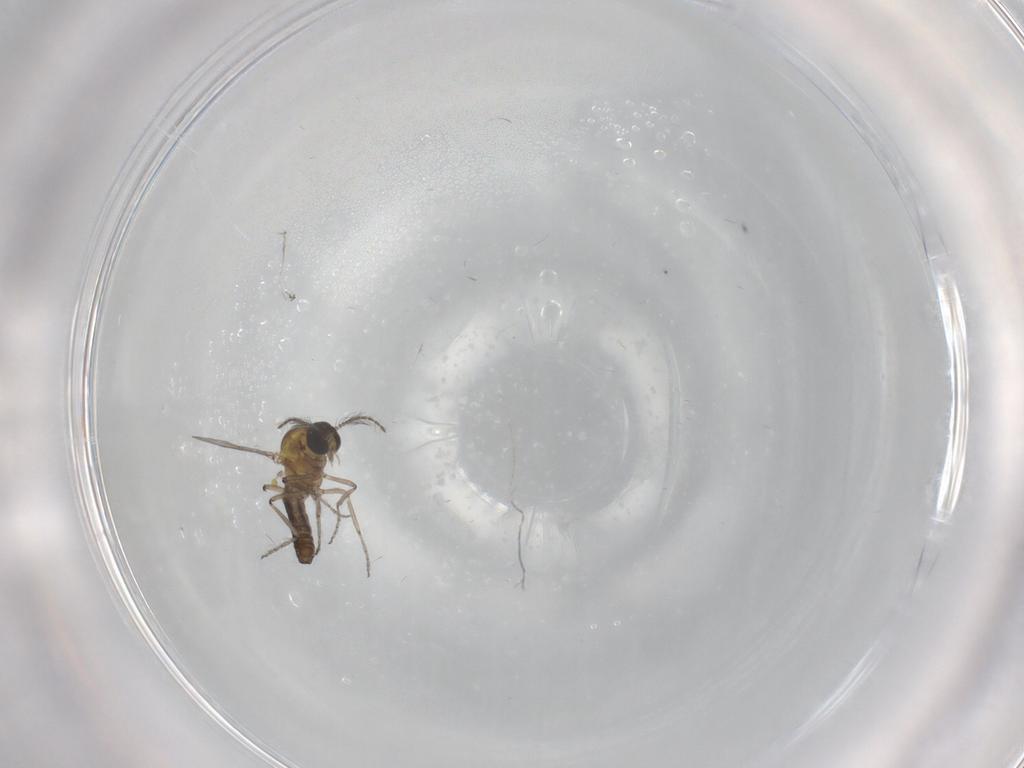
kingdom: Animalia
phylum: Arthropoda
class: Insecta
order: Diptera
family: Ceratopogonidae
